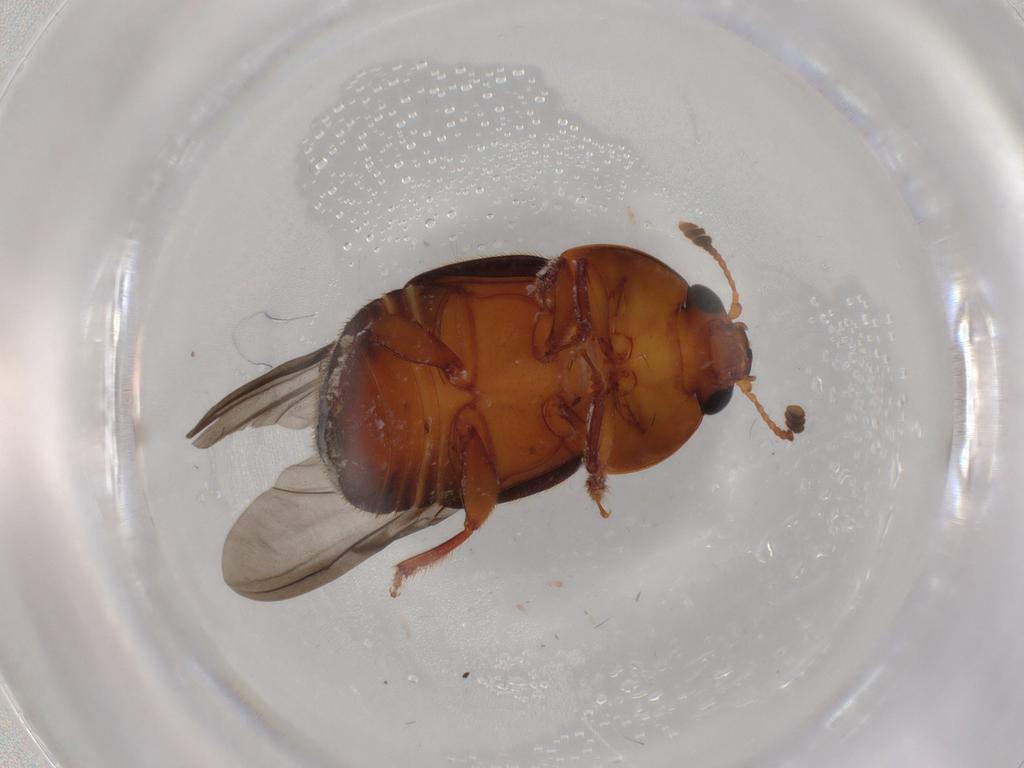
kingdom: Animalia
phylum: Arthropoda
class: Insecta
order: Coleoptera
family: Nitidulidae
